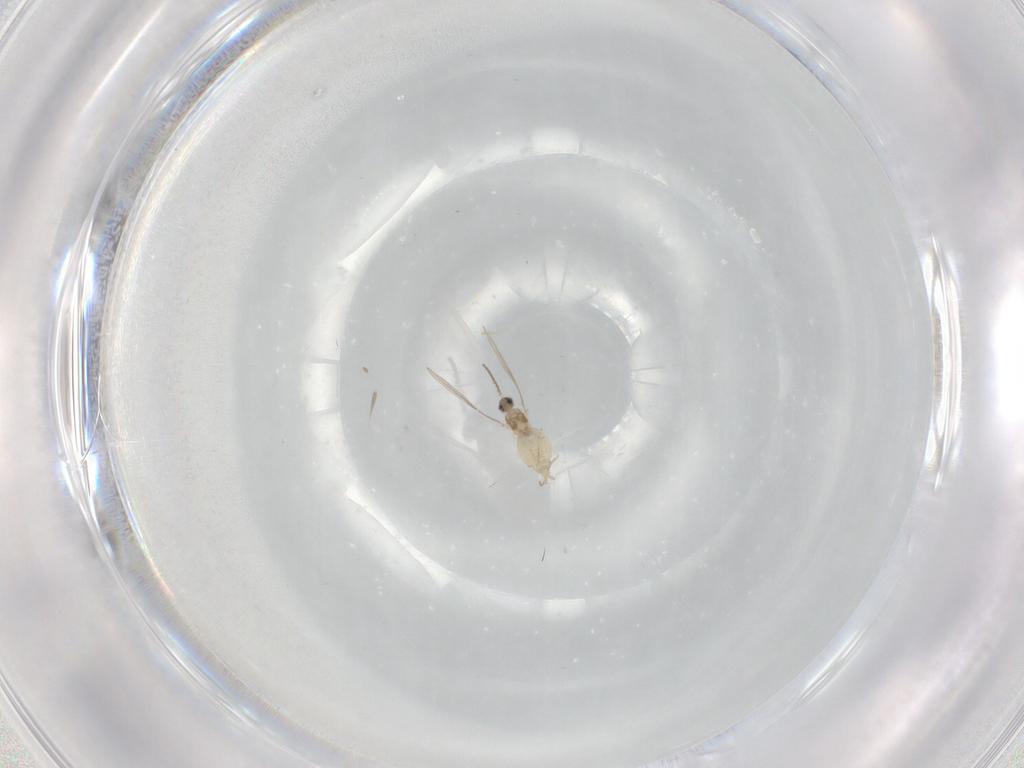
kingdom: Animalia
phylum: Arthropoda
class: Insecta
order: Diptera
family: Cecidomyiidae
